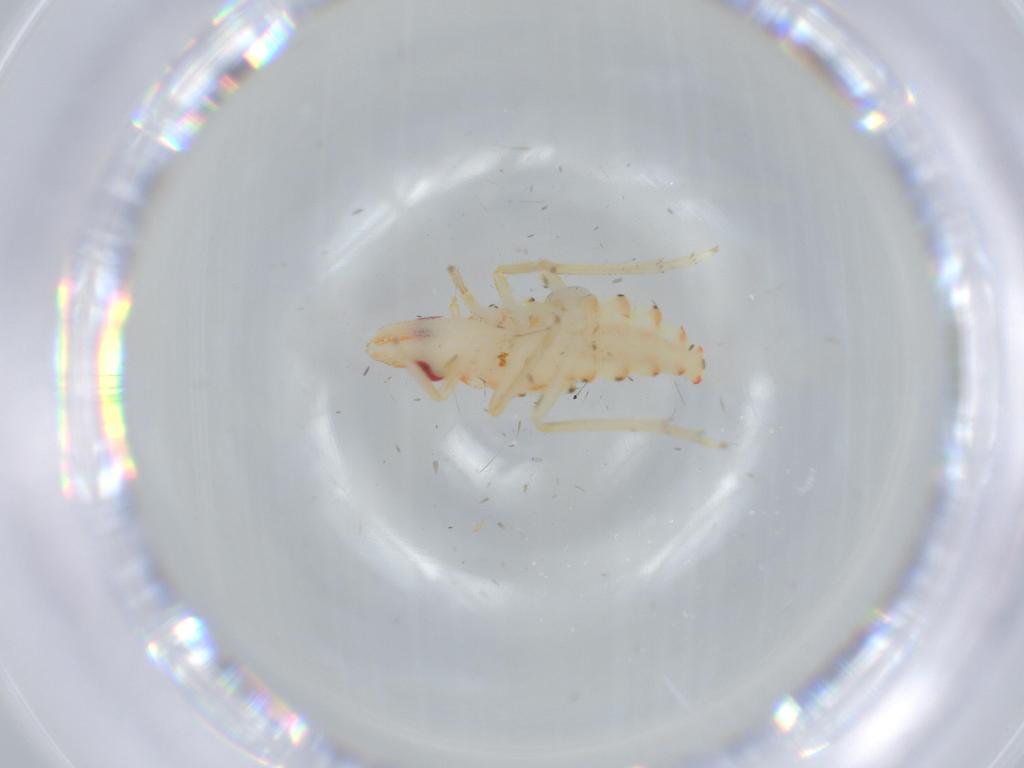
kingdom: Animalia
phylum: Arthropoda
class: Insecta
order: Hemiptera
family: Tropiduchidae
